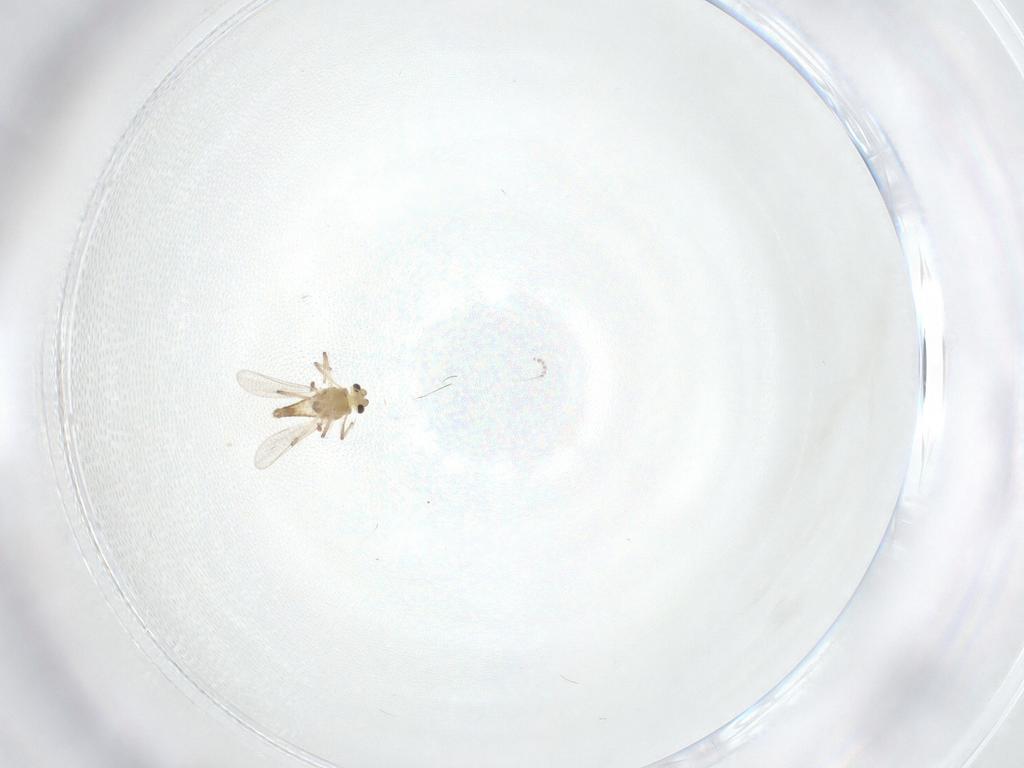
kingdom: Animalia
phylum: Arthropoda
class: Insecta
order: Diptera
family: Chironomidae
